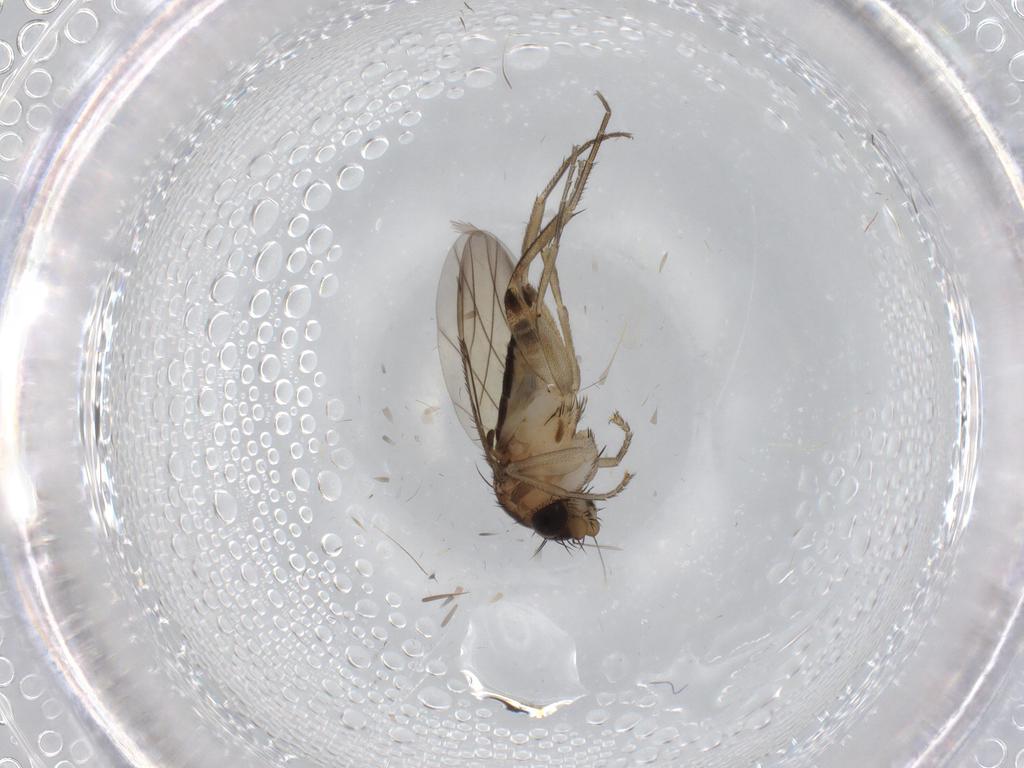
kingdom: Animalia
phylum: Arthropoda
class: Insecta
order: Diptera
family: Phoridae
